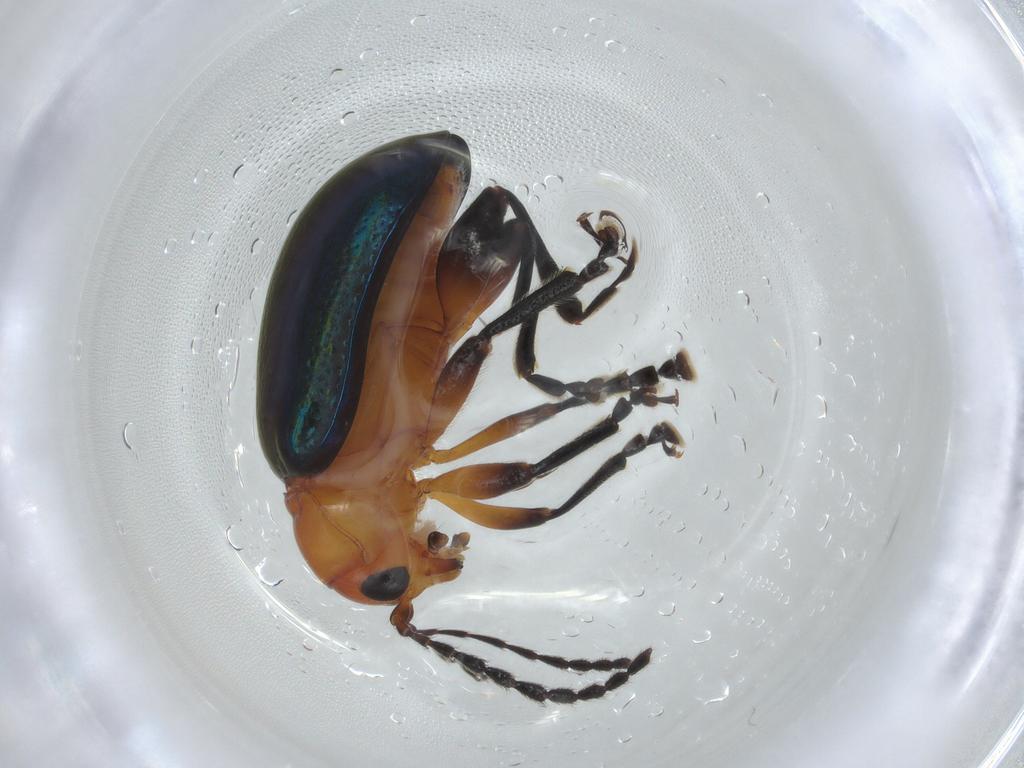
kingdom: Animalia
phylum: Arthropoda
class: Insecta
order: Coleoptera
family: Chrysomelidae
